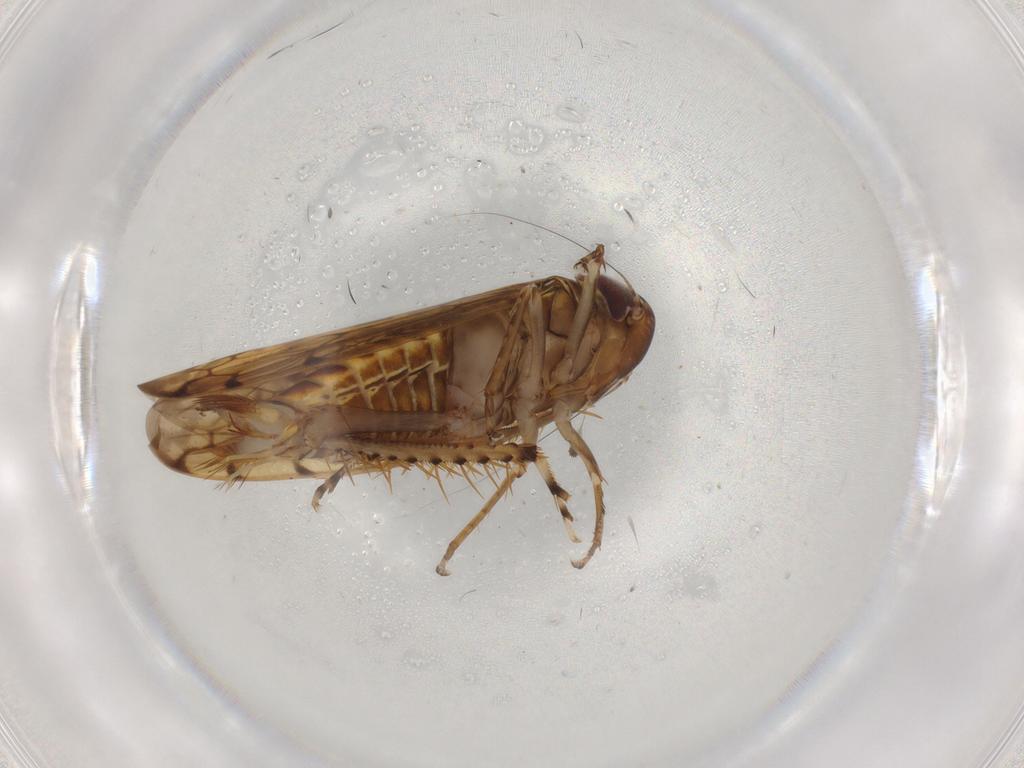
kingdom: Animalia
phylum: Arthropoda
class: Insecta
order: Hemiptera
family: Cicadellidae
